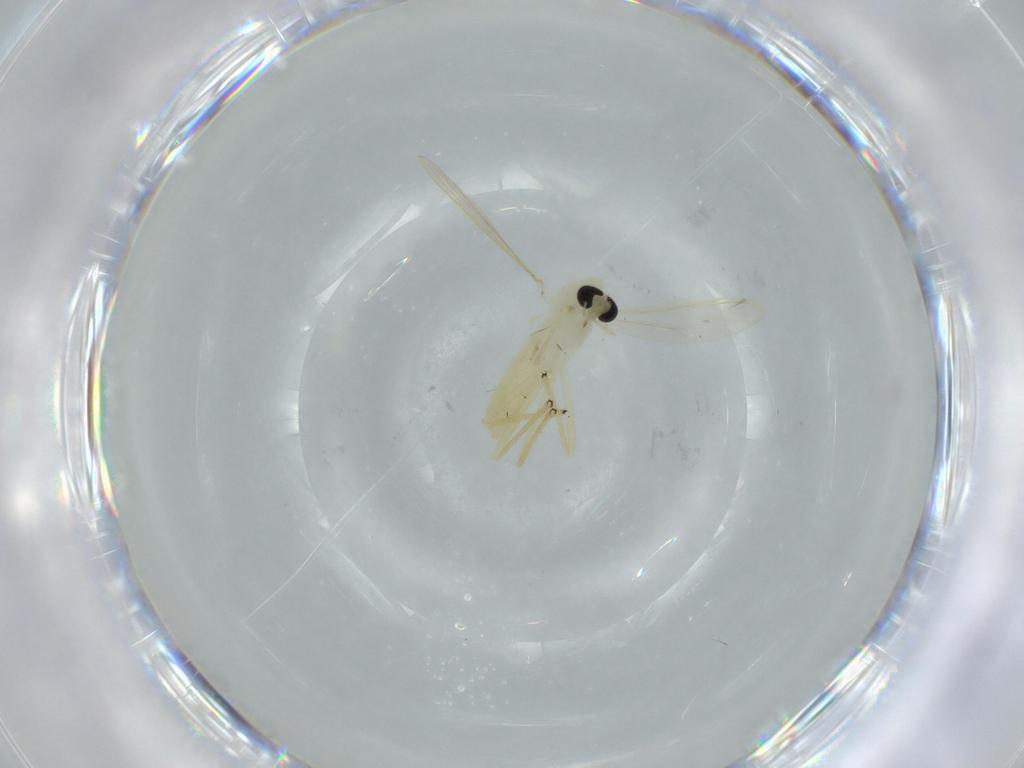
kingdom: Animalia
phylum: Arthropoda
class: Insecta
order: Diptera
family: Chironomidae
